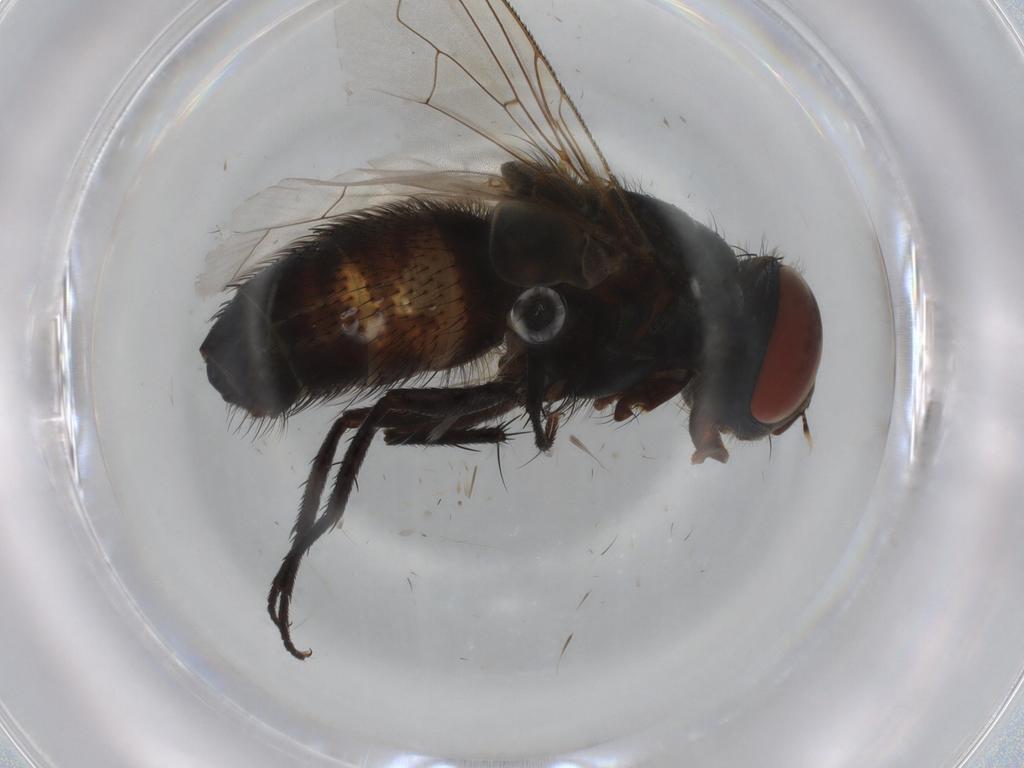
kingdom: Animalia
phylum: Arthropoda
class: Insecta
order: Diptera
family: Sarcophagidae
